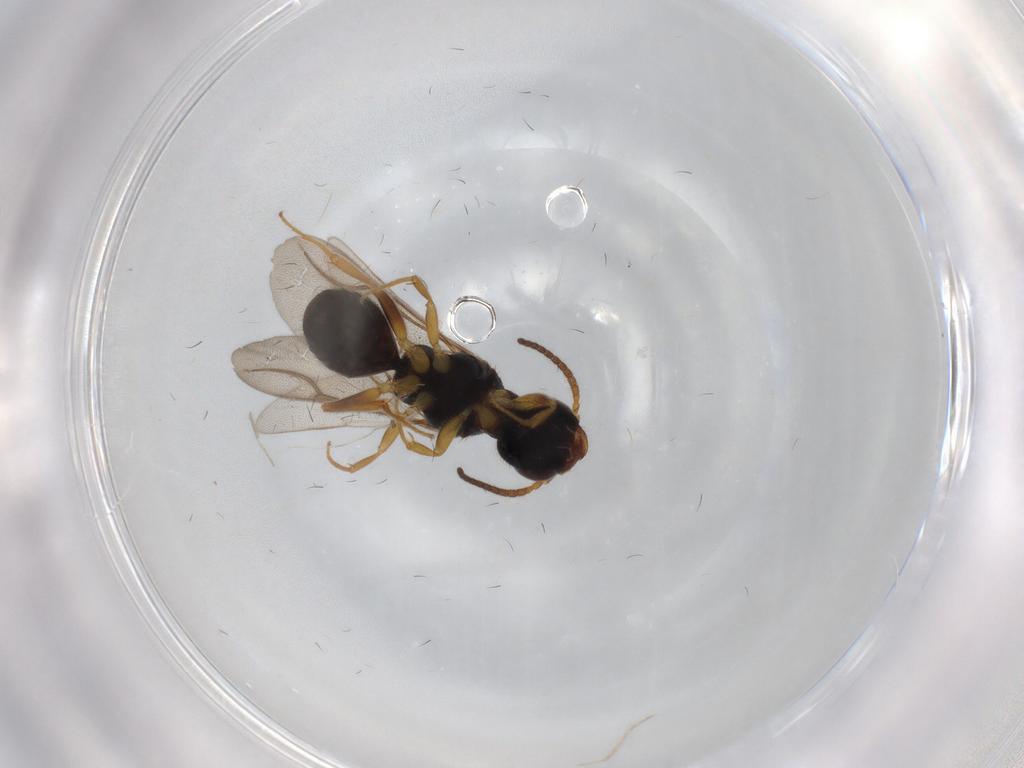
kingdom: Animalia
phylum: Arthropoda
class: Insecta
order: Hymenoptera
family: Bethylidae
